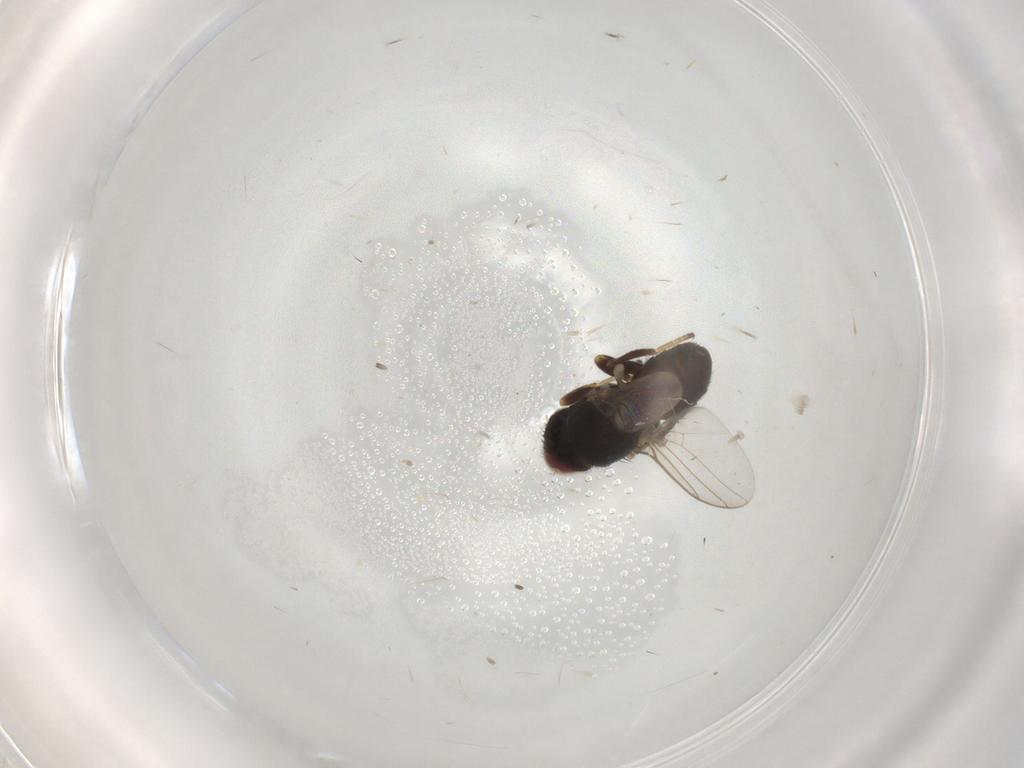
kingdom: Animalia
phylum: Arthropoda
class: Insecta
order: Diptera
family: Chloropidae
